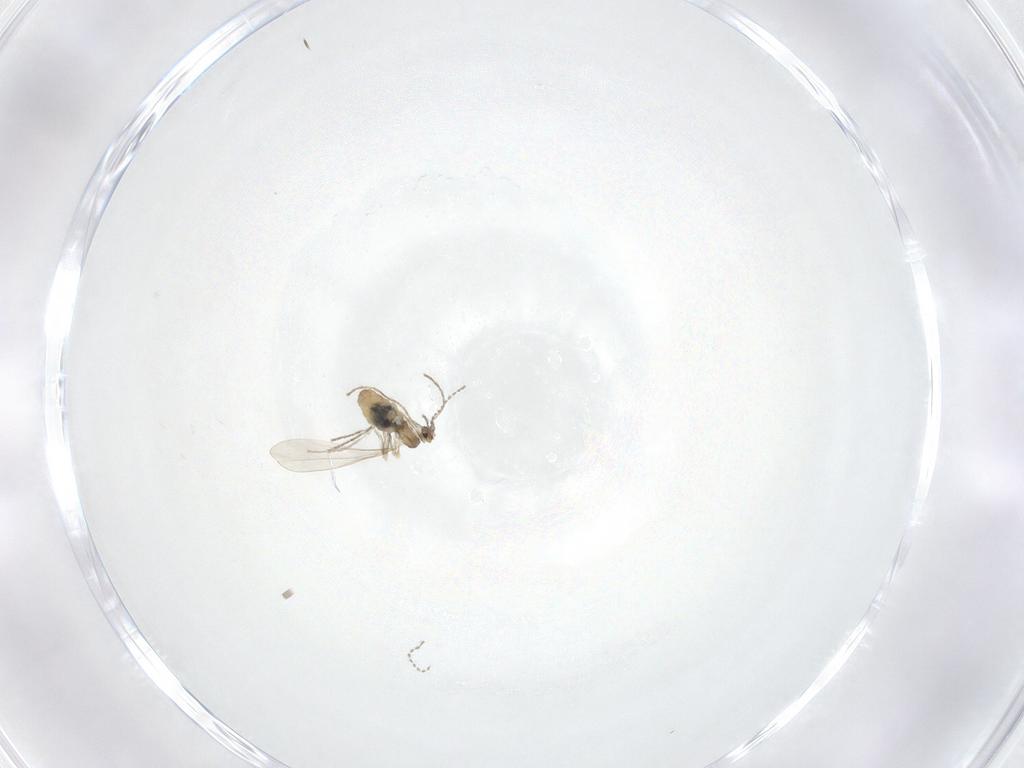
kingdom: Animalia
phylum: Arthropoda
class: Insecta
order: Diptera
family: Cecidomyiidae
